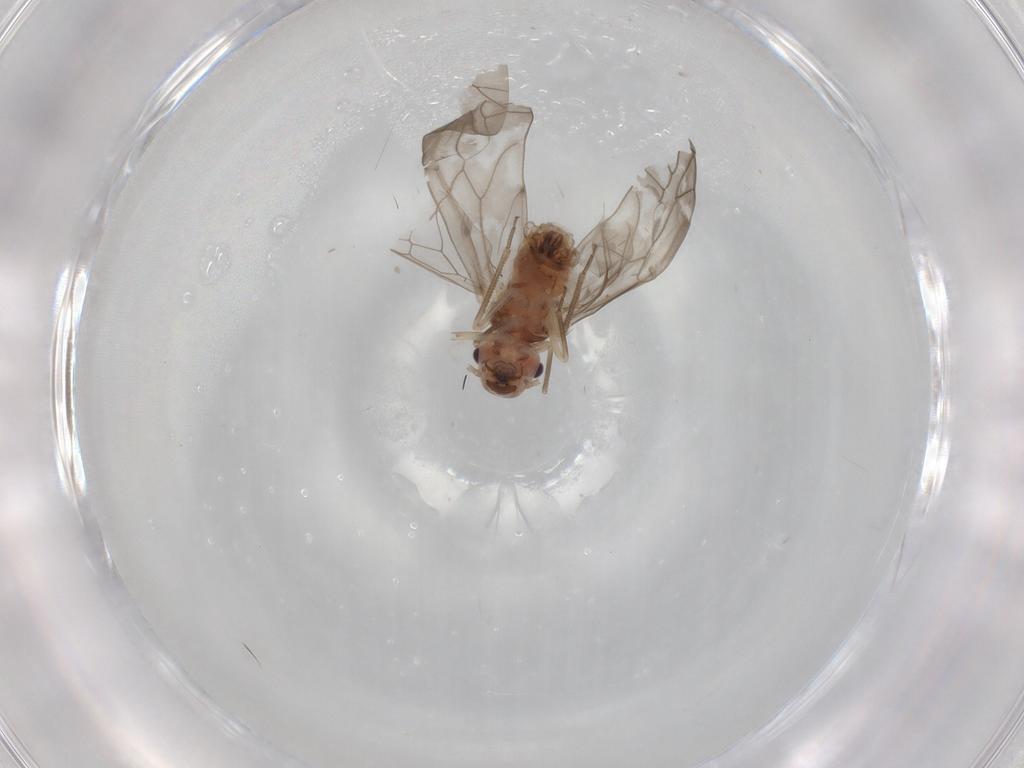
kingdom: Animalia
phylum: Arthropoda
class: Insecta
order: Psocodea
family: Peripsocidae
